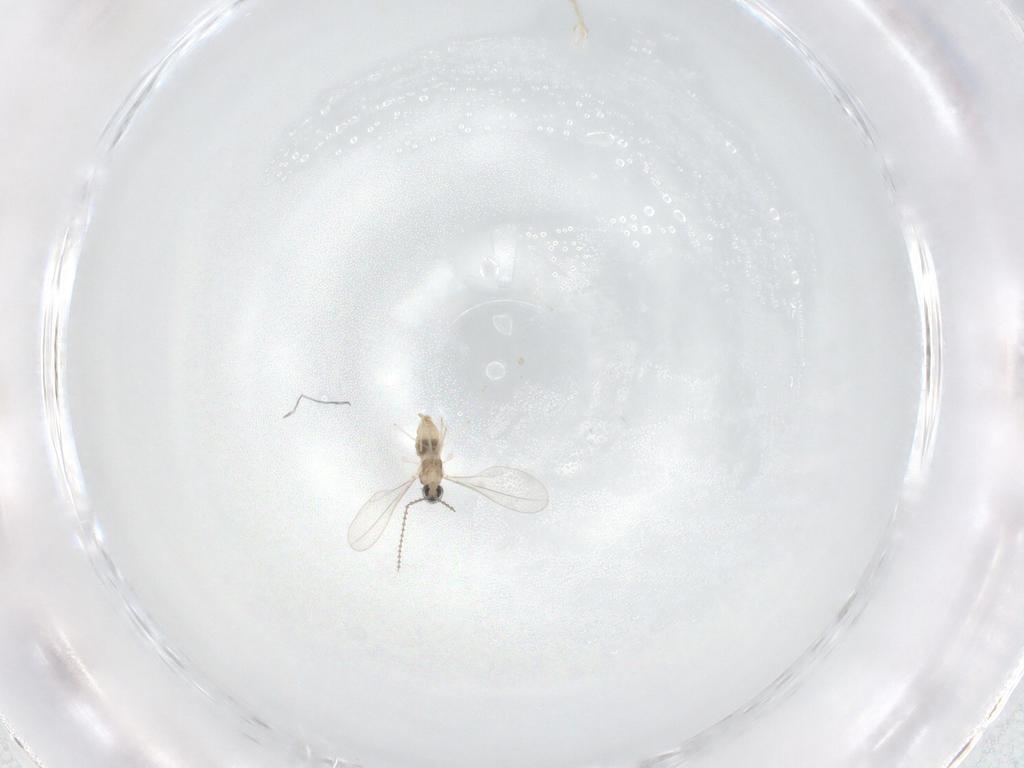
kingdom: Animalia
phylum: Arthropoda
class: Insecta
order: Diptera
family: Cecidomyiidae
